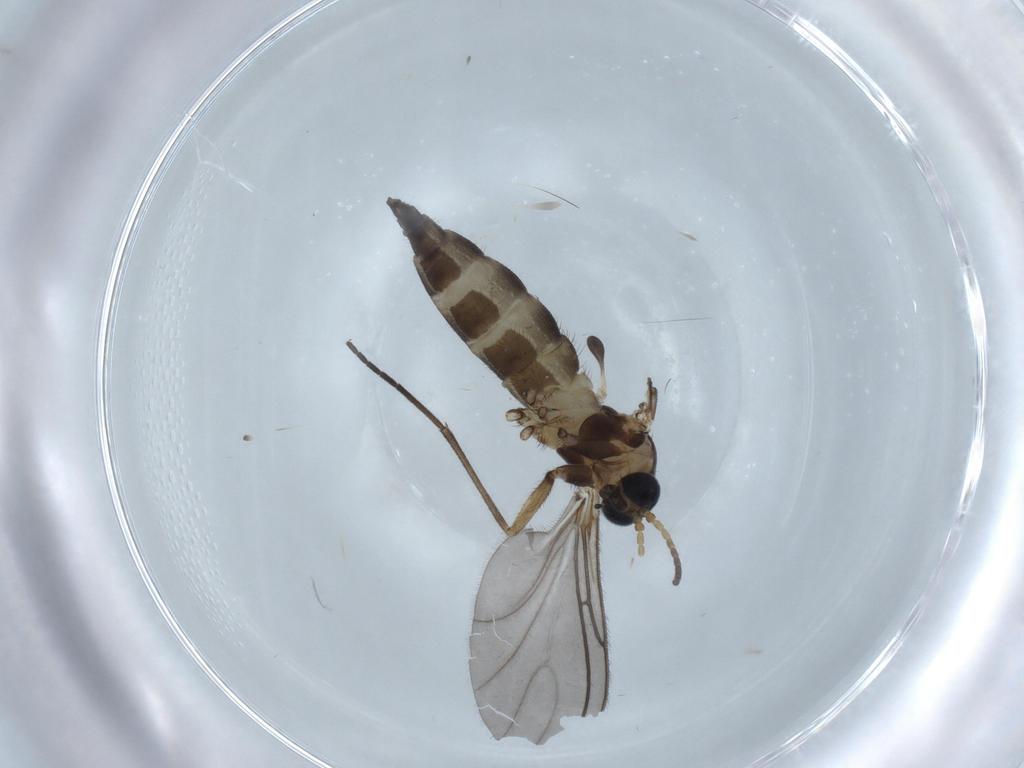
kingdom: Animalia
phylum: Arthropoda
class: Insecta
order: Diptera
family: Sciaridae
